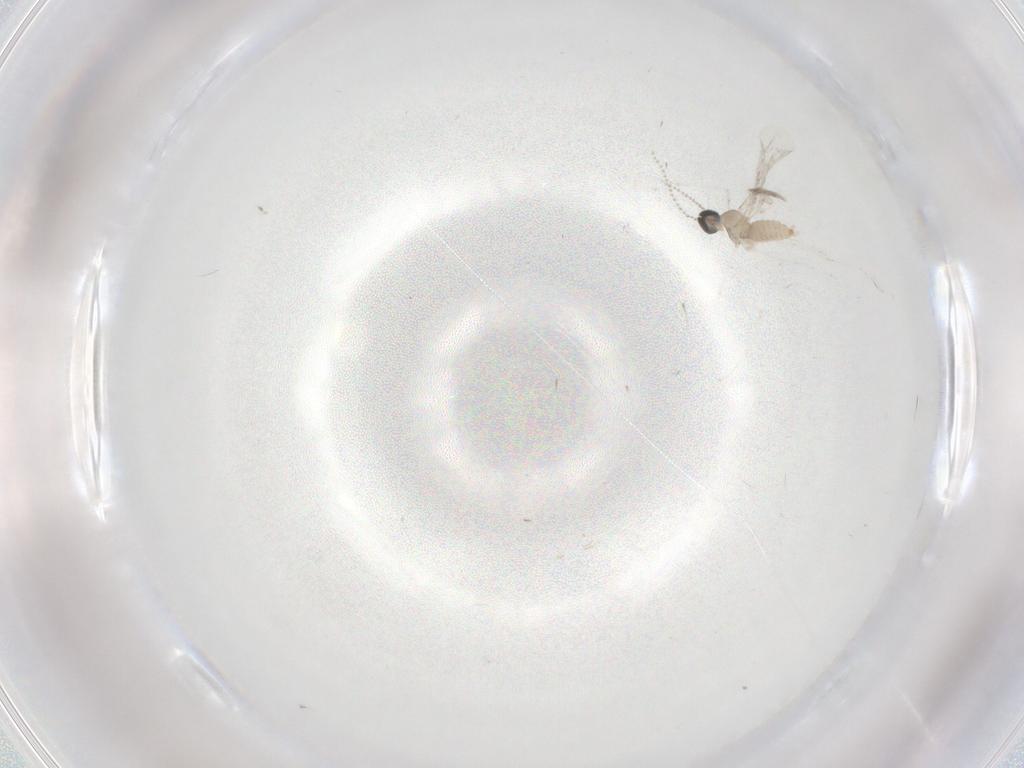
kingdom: Animalia
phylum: Arthropoda
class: Insecta
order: Diptera
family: Cecidomyiidae
